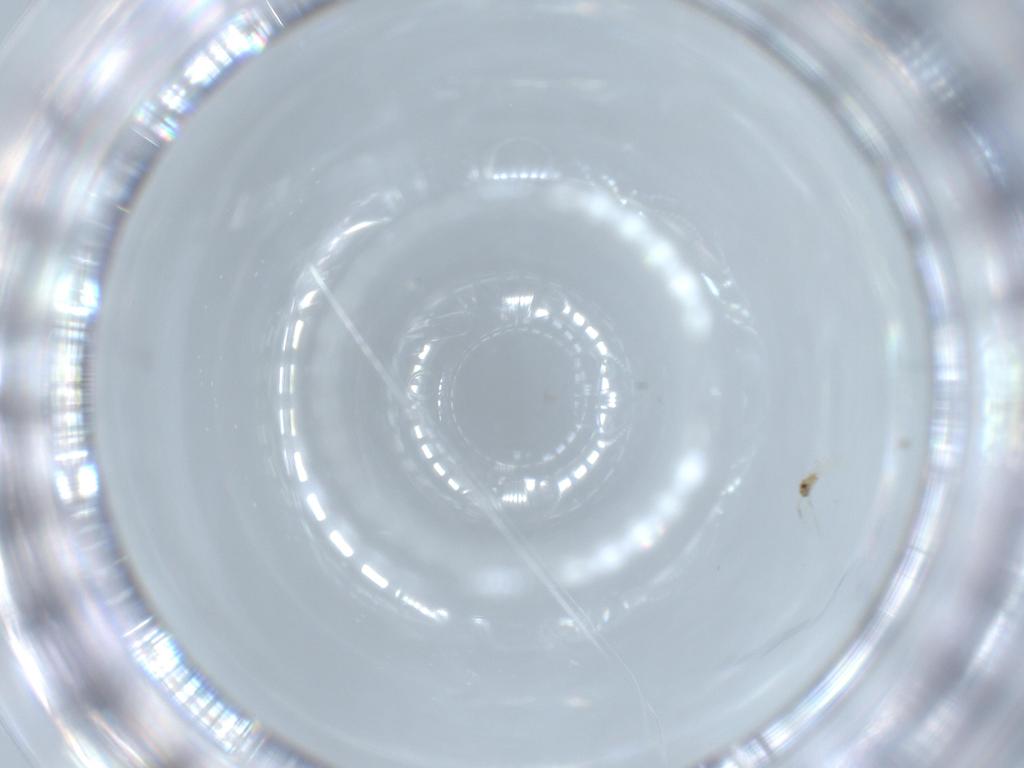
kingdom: Animalia
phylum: Arthropoda
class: Insecta
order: Hymenoptera
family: Mymaridae
